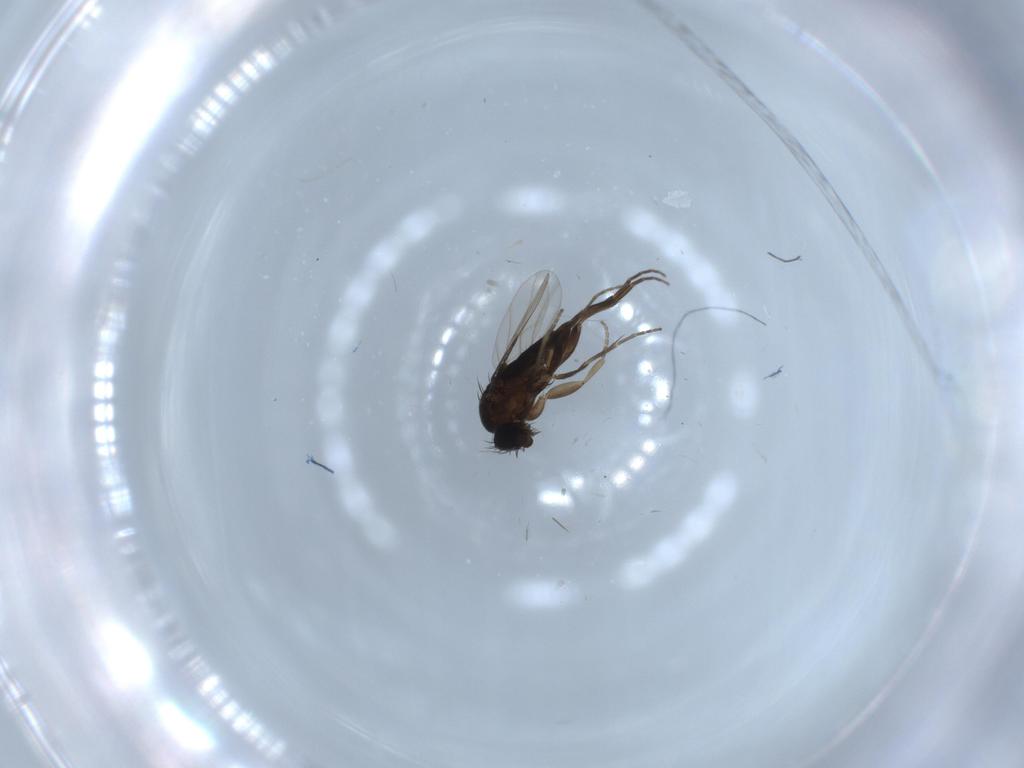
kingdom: Animalia
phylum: Arthropoda
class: Insecta
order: Diptera
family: Phoridae
